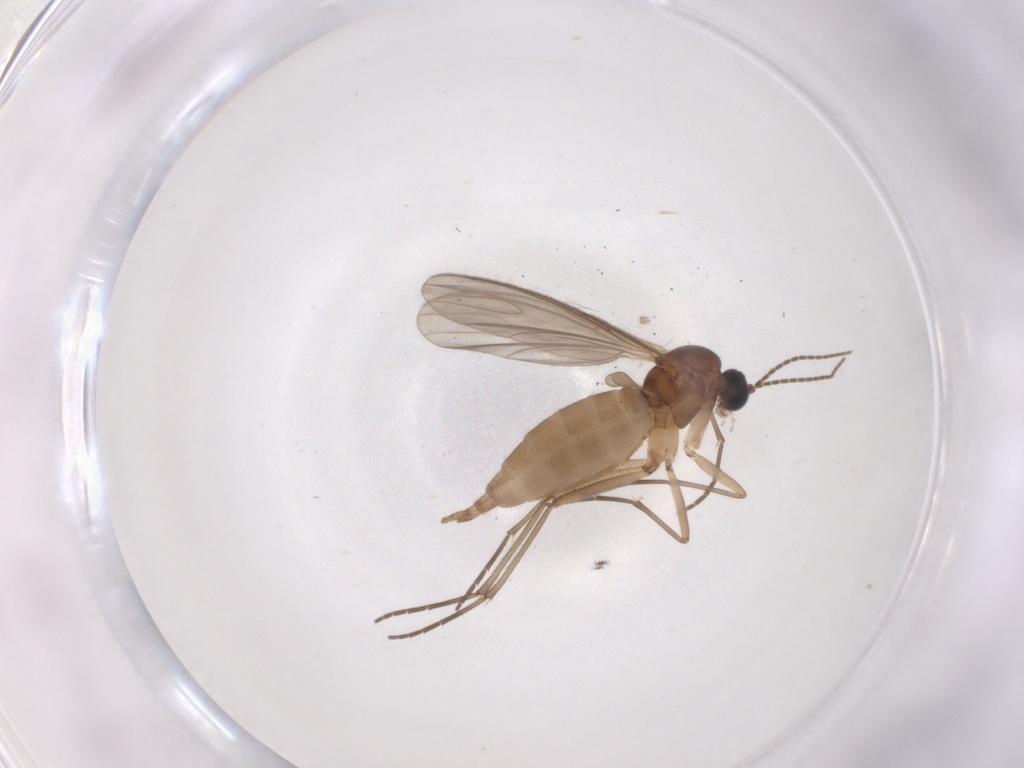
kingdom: Animalia
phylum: Arthropoda
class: Insecta
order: Diptera
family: Sciaridae
